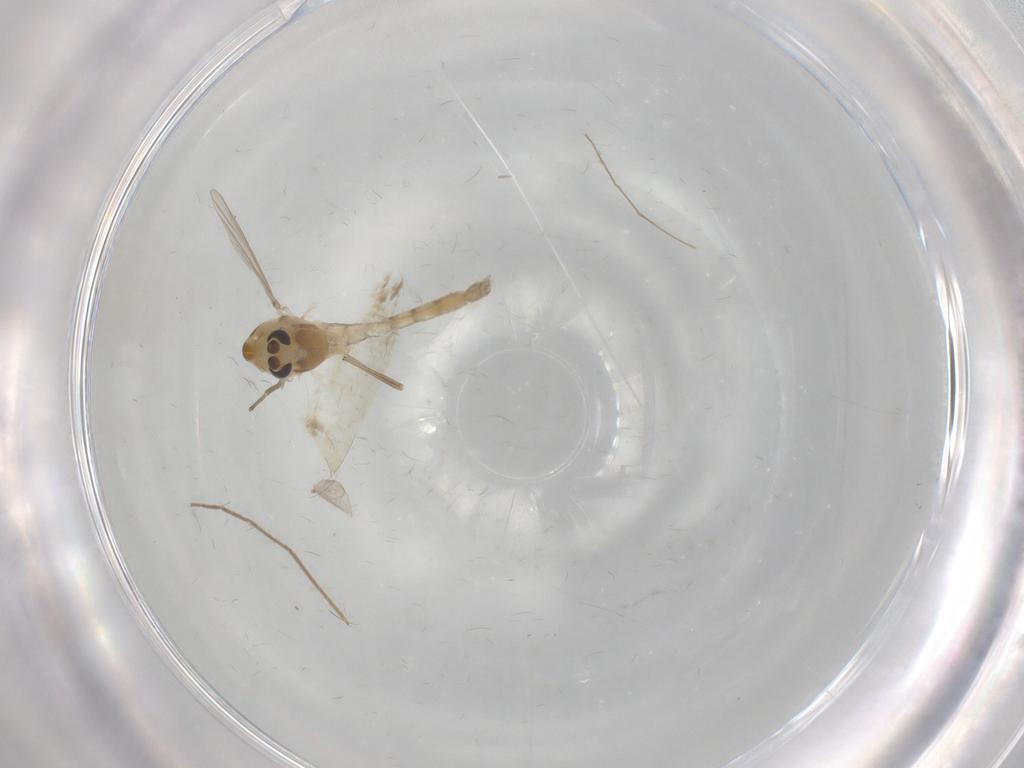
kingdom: Animalia
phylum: Arthropoda
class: Insecta
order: Diptera
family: Chironomidae
